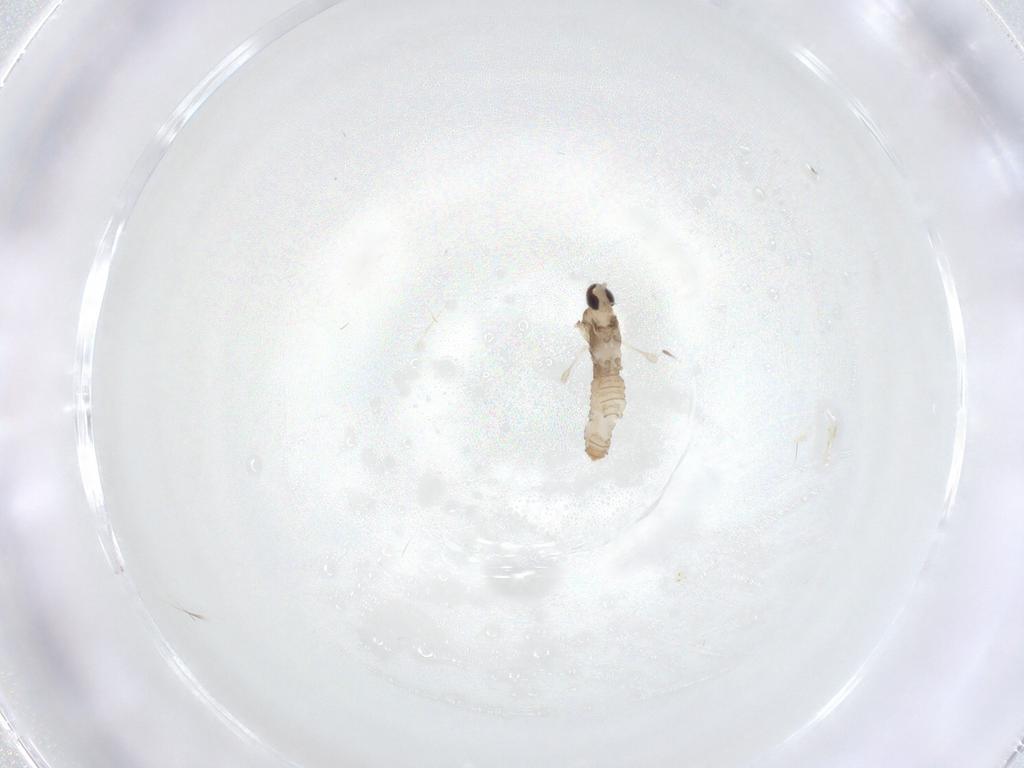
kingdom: Animalia
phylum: Arthropoda
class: Insecta
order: Diptera
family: Cecidomyiidae
